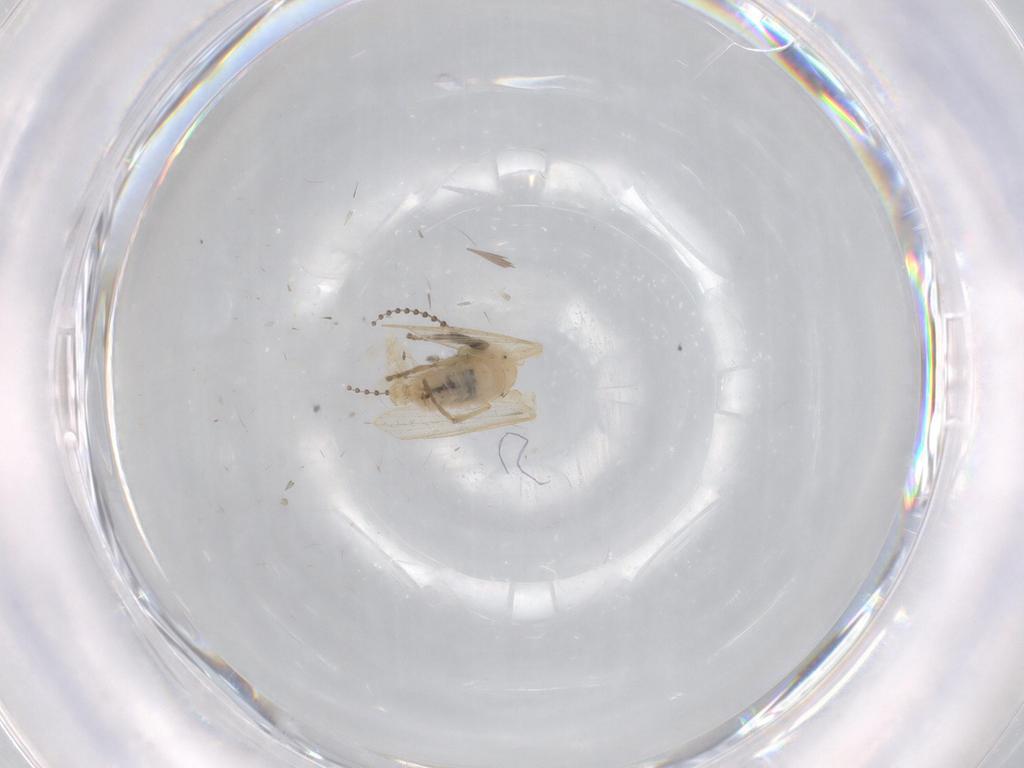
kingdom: Animalia
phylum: Arthropoda
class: Insecta
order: Diptera
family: Psychodidae
